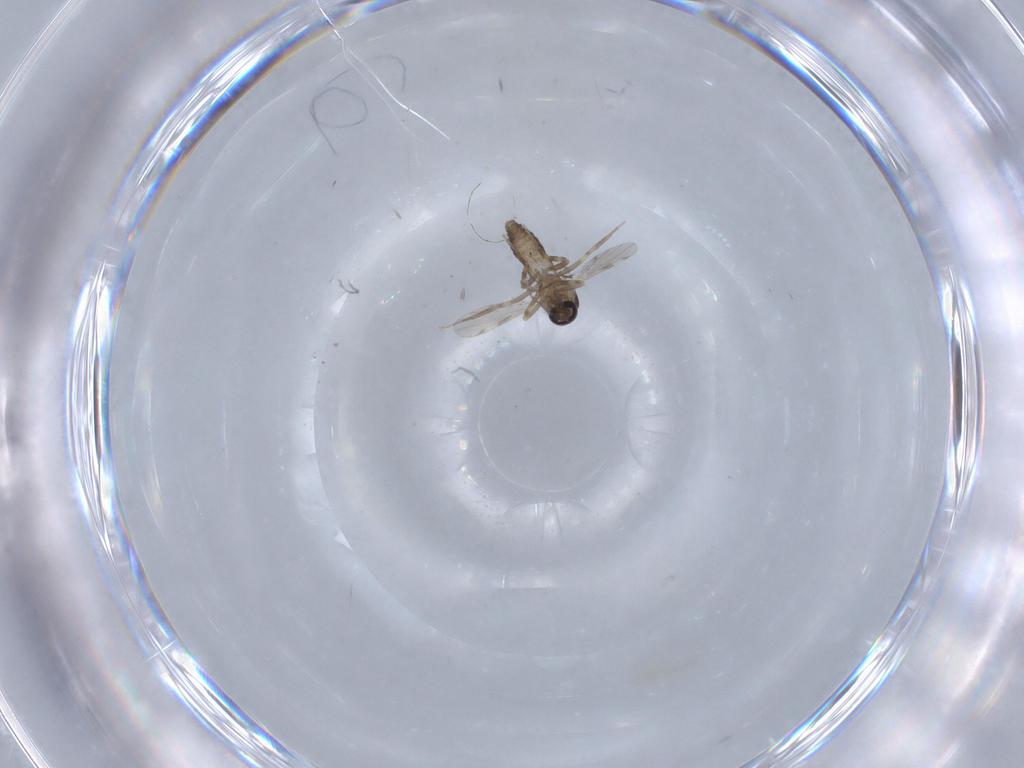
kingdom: Animalia
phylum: Arthropoda
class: Insecta
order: Diptera
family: Ceratopogonidae
